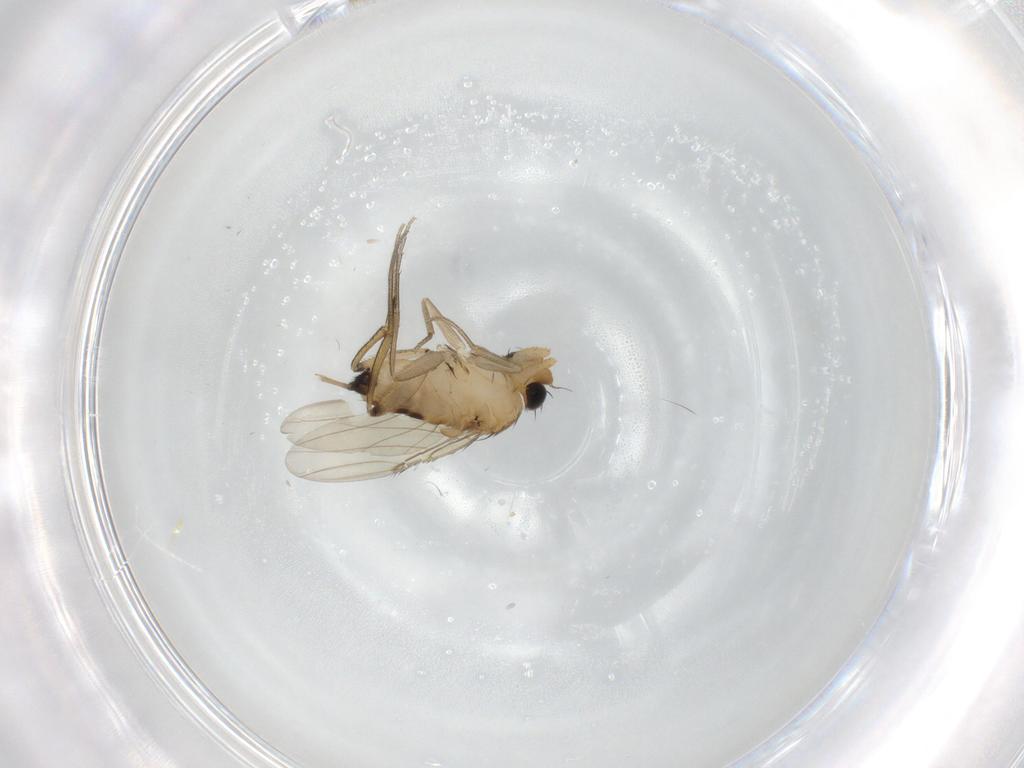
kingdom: Animalia
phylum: Arthropoda
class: Insecta
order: Diptera
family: Phoridae
